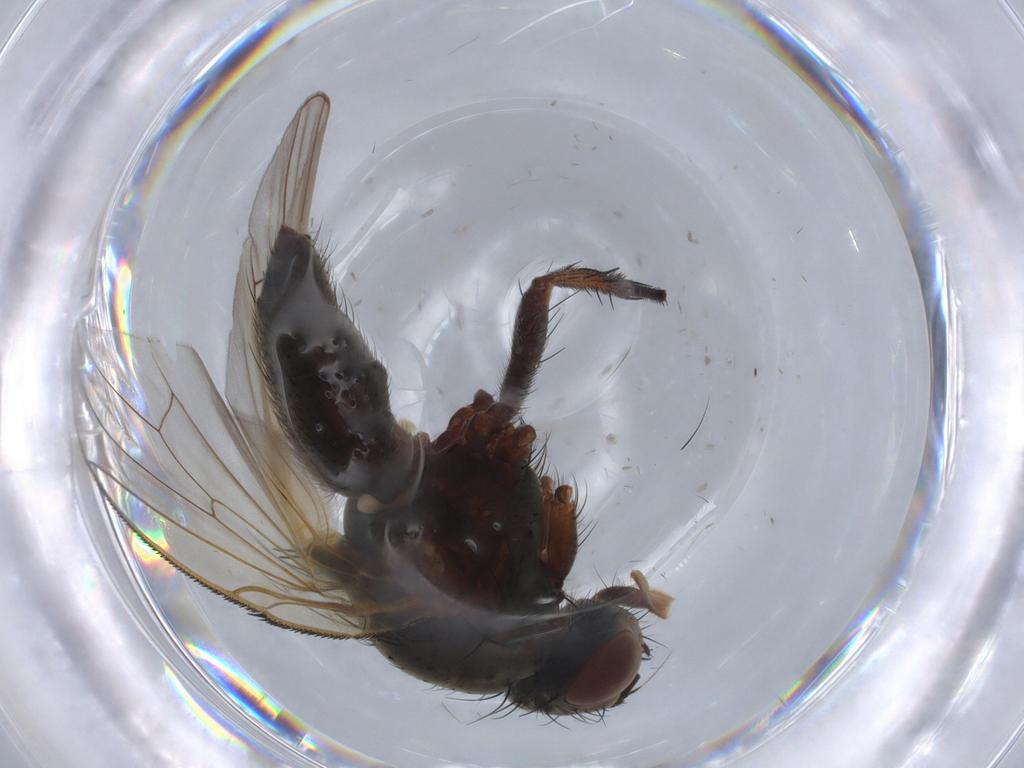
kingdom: Animalia
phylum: Arthropoda
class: Insecta
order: Diptera
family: Anthomyiidae
